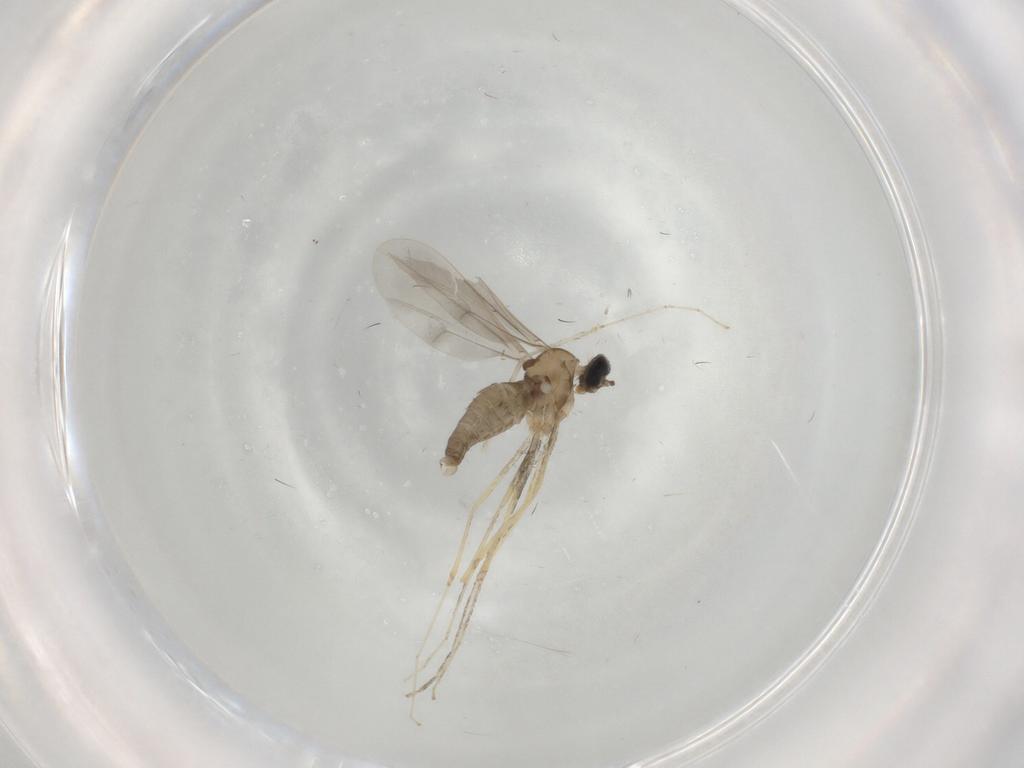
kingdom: Animalia
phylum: Arthropoda
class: Insecta
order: Diptera
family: Cecidomyiidae
